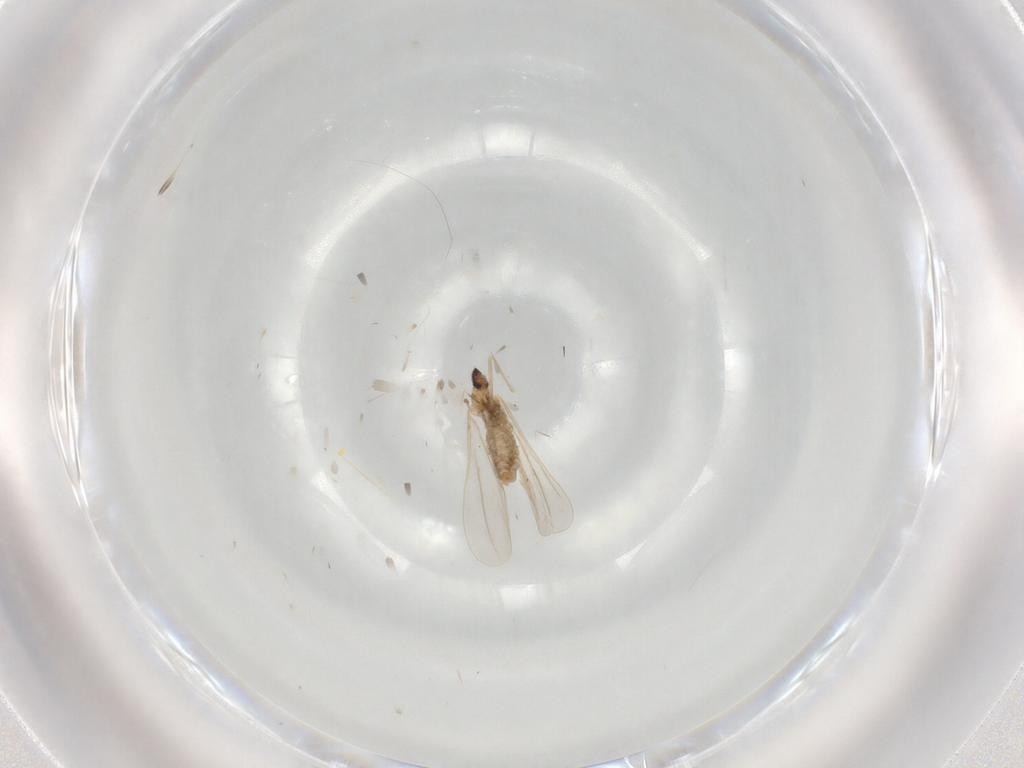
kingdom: Animalia
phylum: Arthropoda
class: Insecta
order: Diptera
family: Cecidomyiidae
